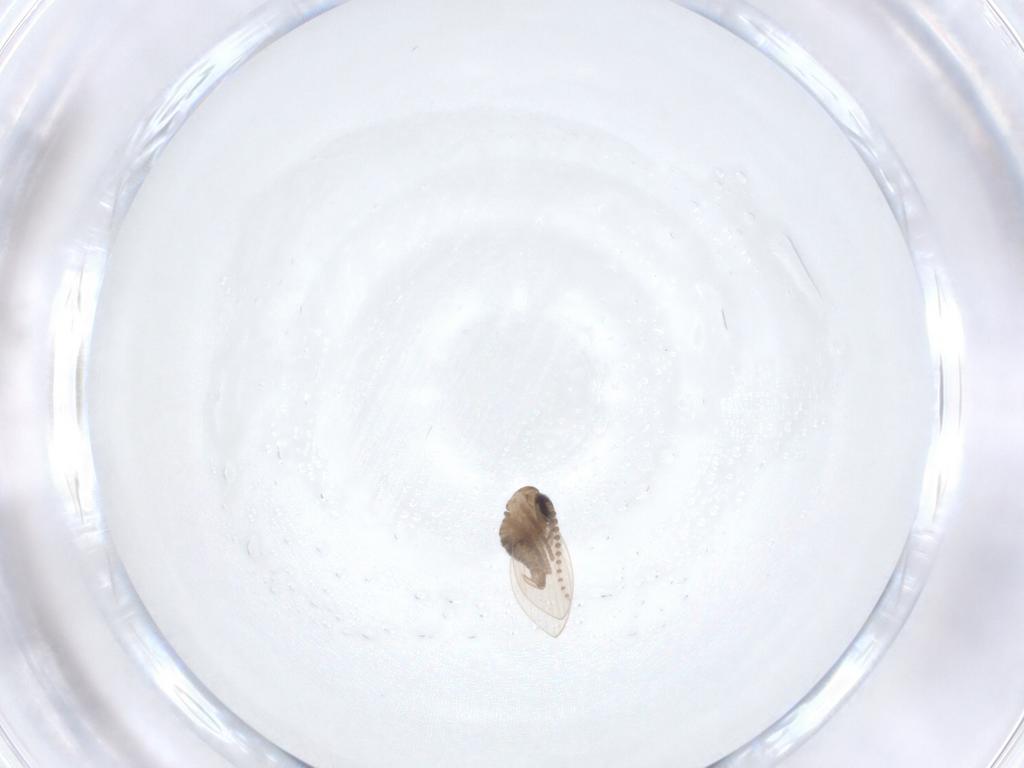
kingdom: Animalia
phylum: Arthropoda
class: Insecta
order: Diptera
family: Psychodidae
